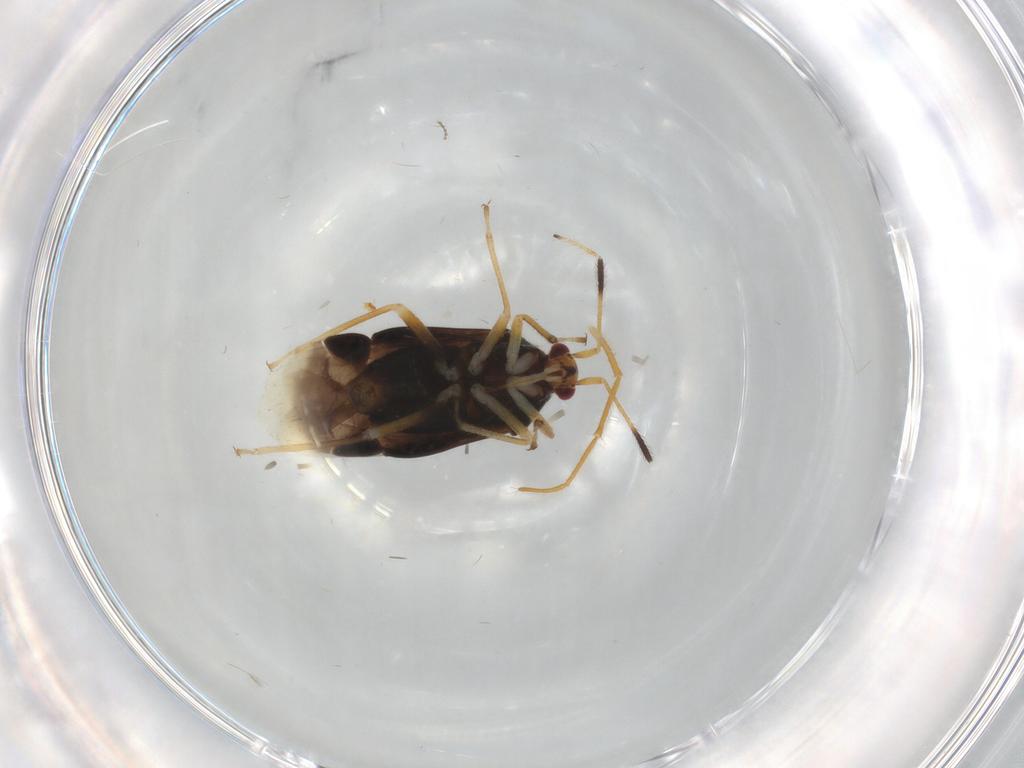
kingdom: Animalia
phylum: Arthropoda
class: Insecta
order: Hemiptera
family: Miridae
